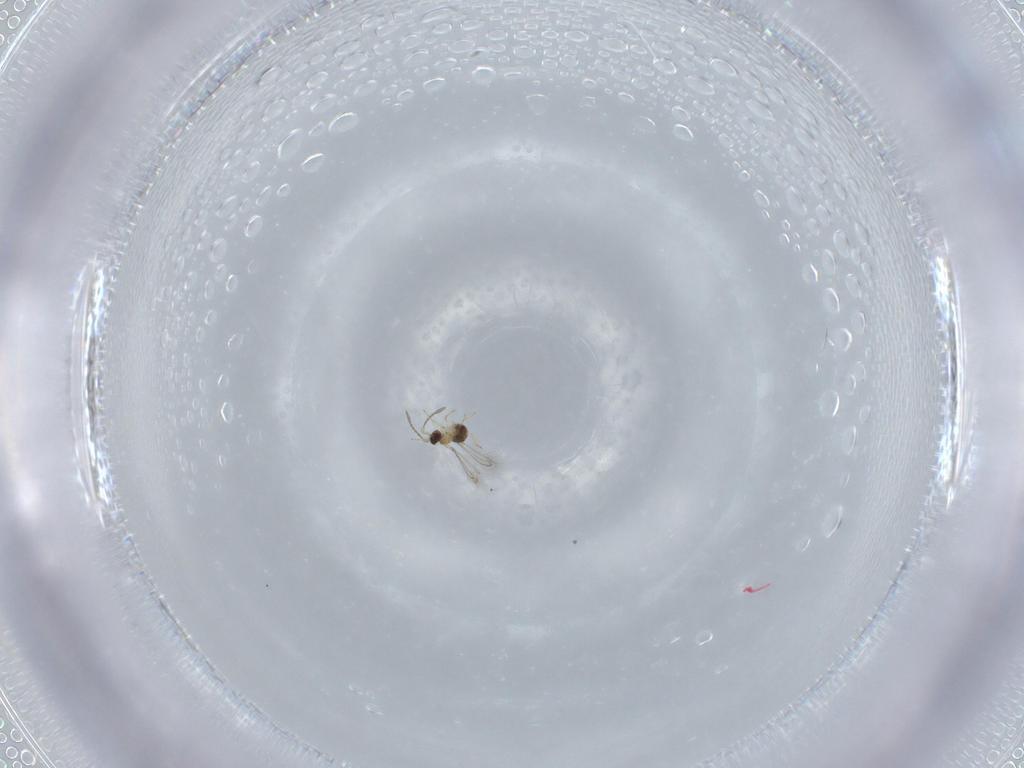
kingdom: Animalia
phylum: Arthropoda
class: Insecta
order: Hymenoptera
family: Mymaridae
